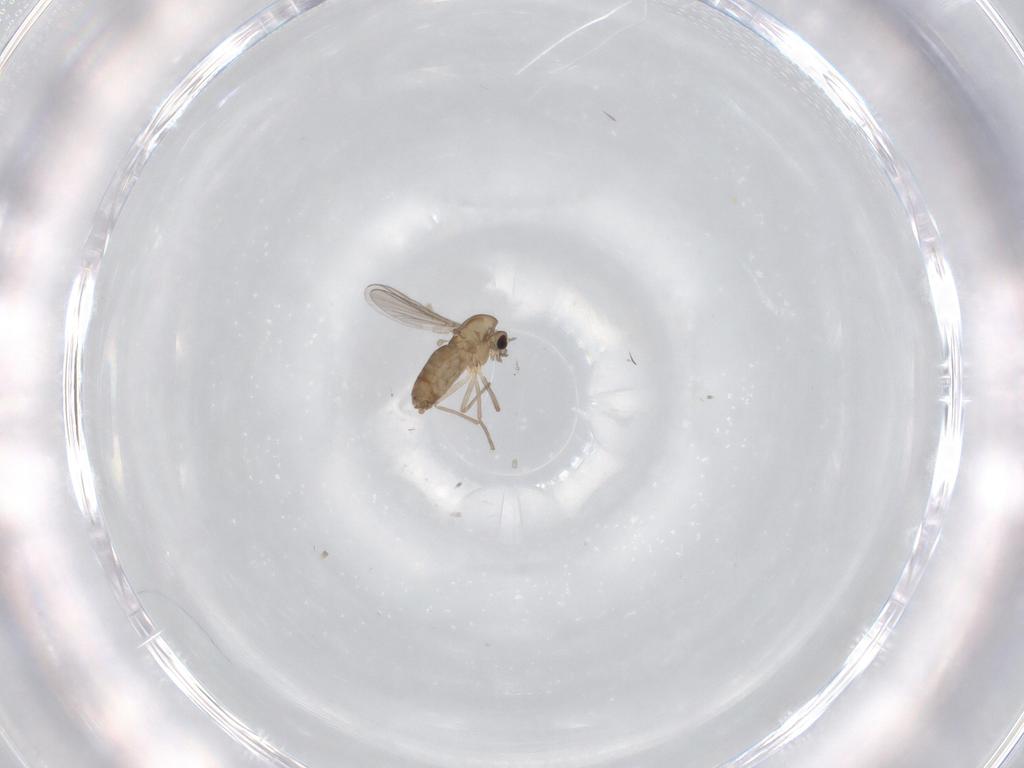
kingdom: Animalia
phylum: Arthropoda
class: Insecta
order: Diptera
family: Chironomidae
